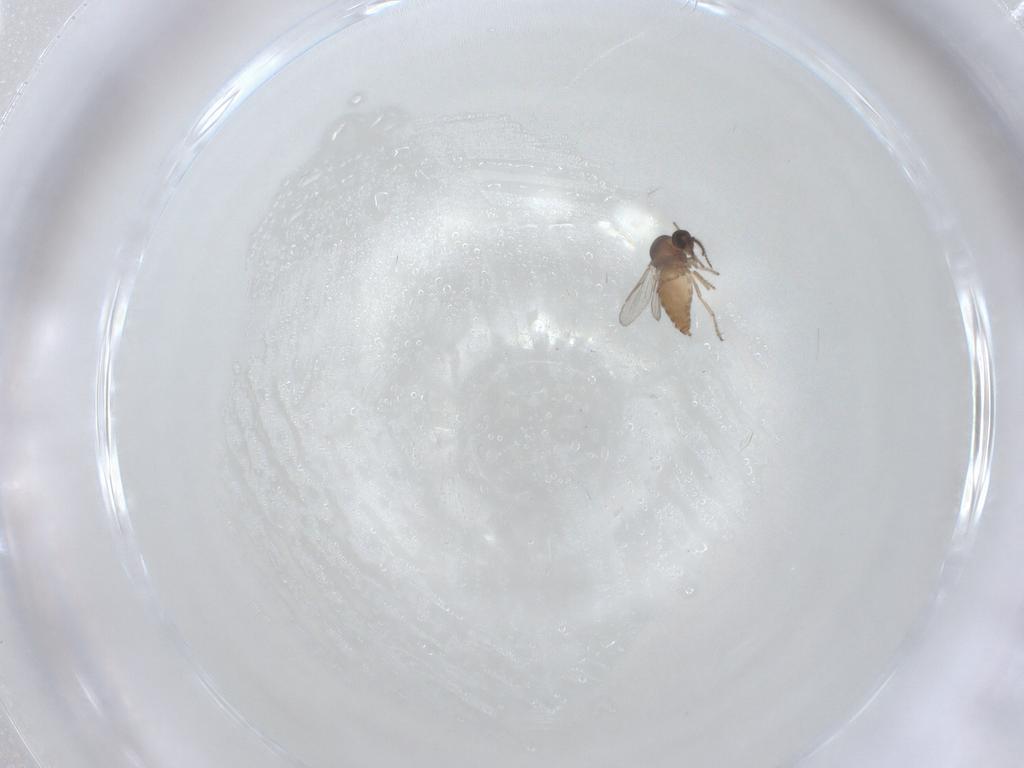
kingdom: Animalia
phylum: Arthropoda
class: Insecta
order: Diptera
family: Ceratopogonidae
